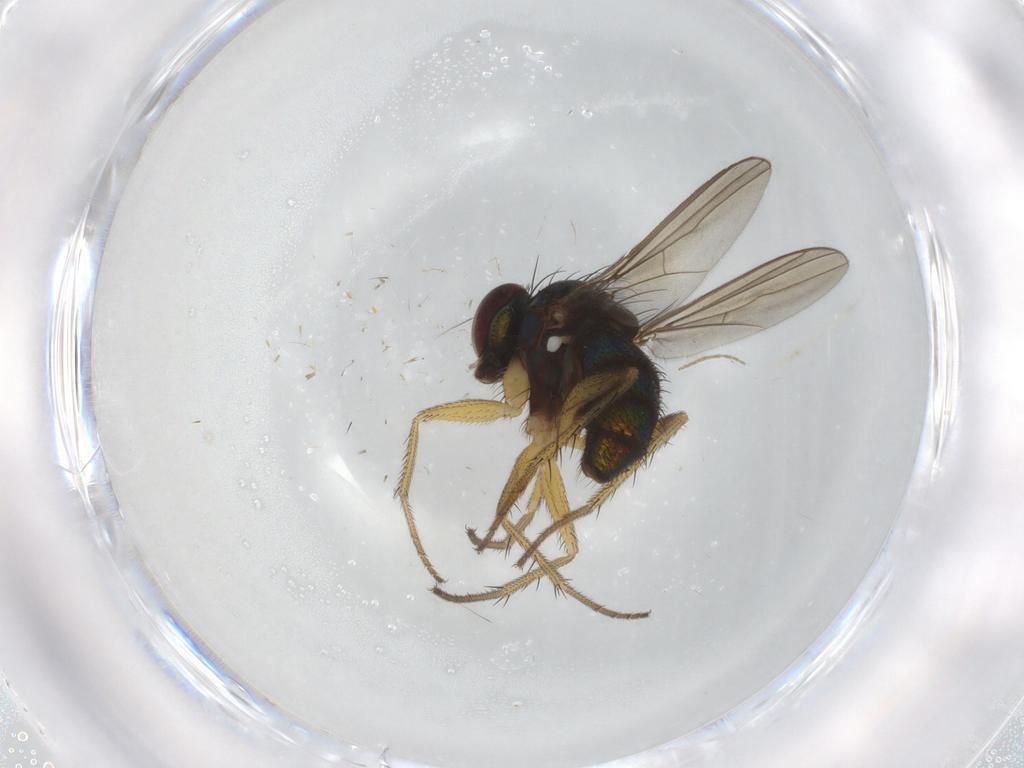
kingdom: Animalia
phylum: Arthropoda
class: Insecta
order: Diptera
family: Dolichopodidae
